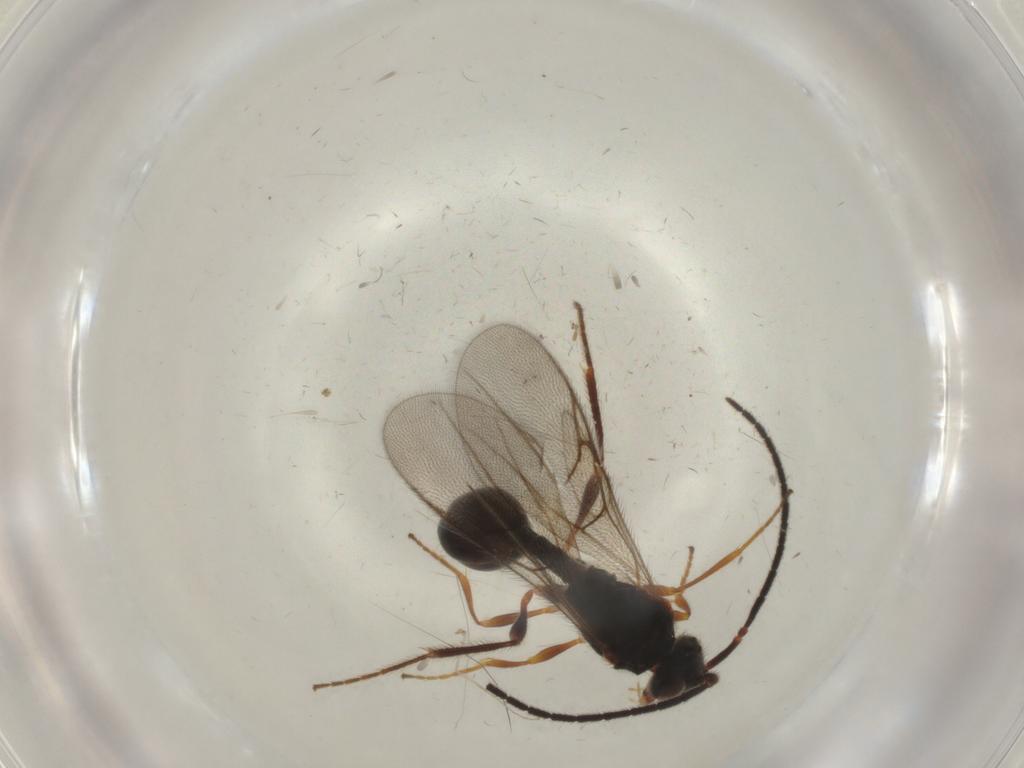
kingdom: Animalia
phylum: Arthropoda
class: Insecta
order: Hymenoptera
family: Formicidae
